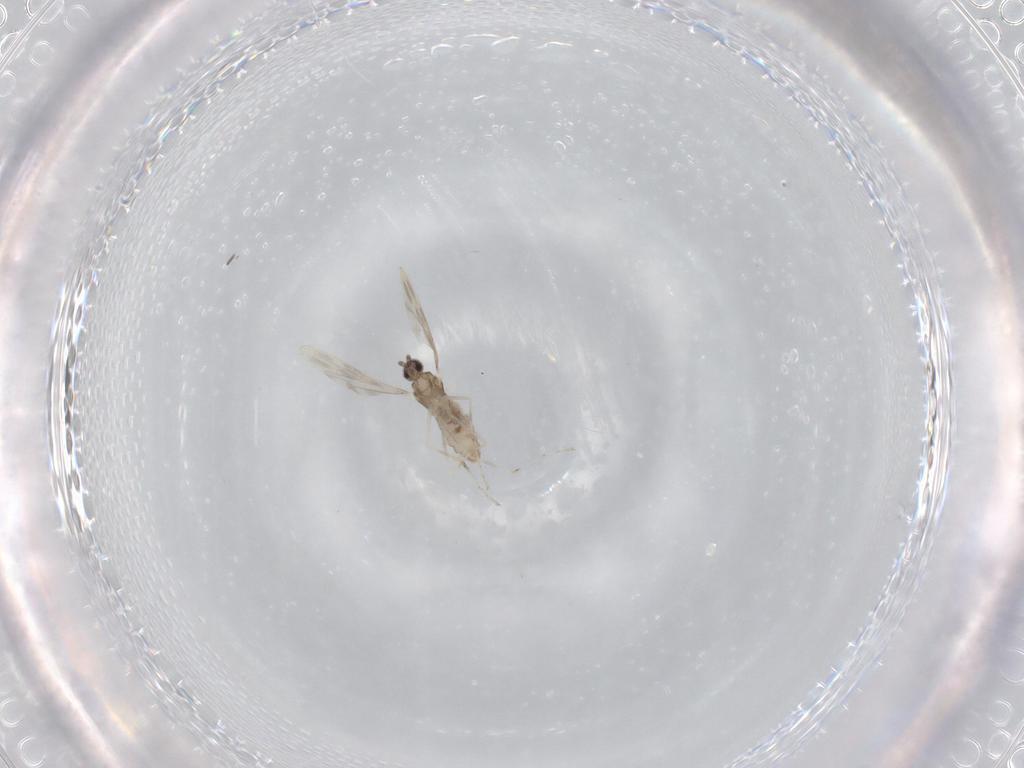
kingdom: Animalia
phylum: Arthropoda
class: Insecta
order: Diptera
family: Cecidomyiidae
